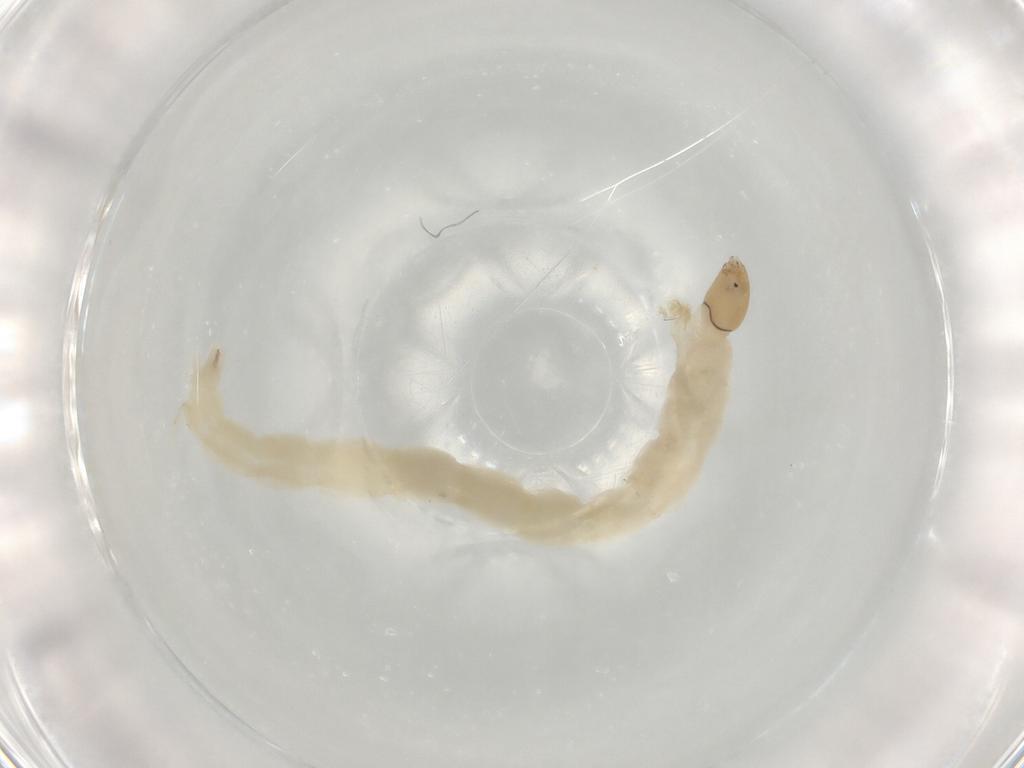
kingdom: Animalia
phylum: Arthropoda
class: Insecta
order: Diptera
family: Chironomidae
